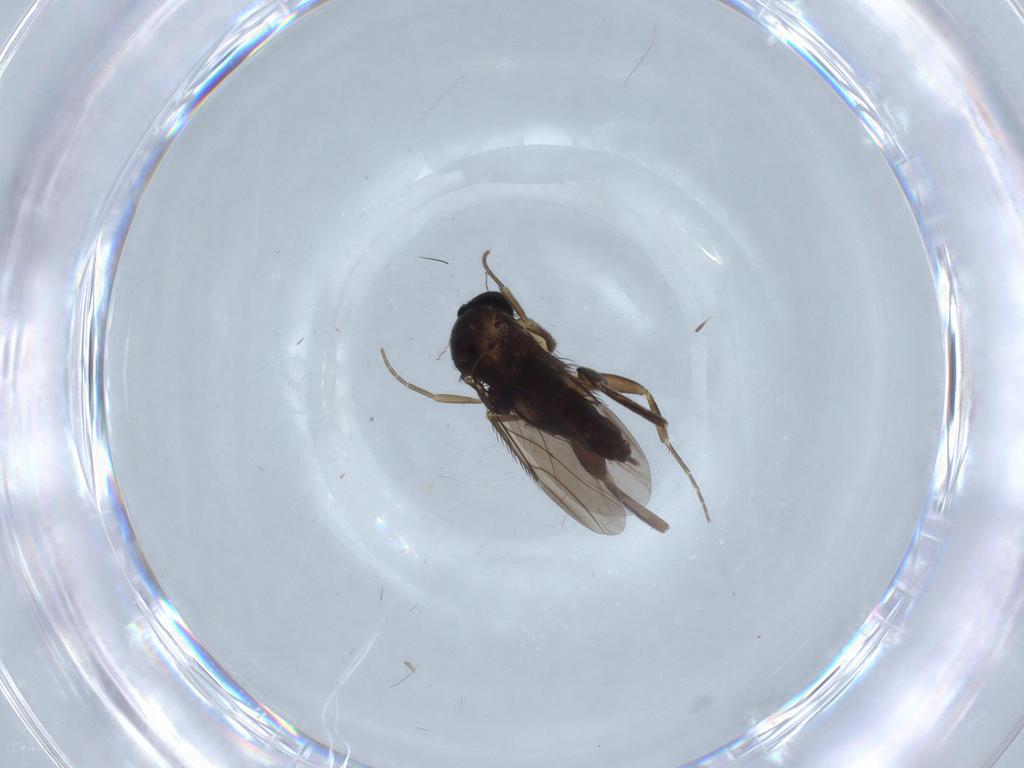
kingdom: Animalia
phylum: Arthropoda
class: Insecta
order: Diptera
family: Phoridae
